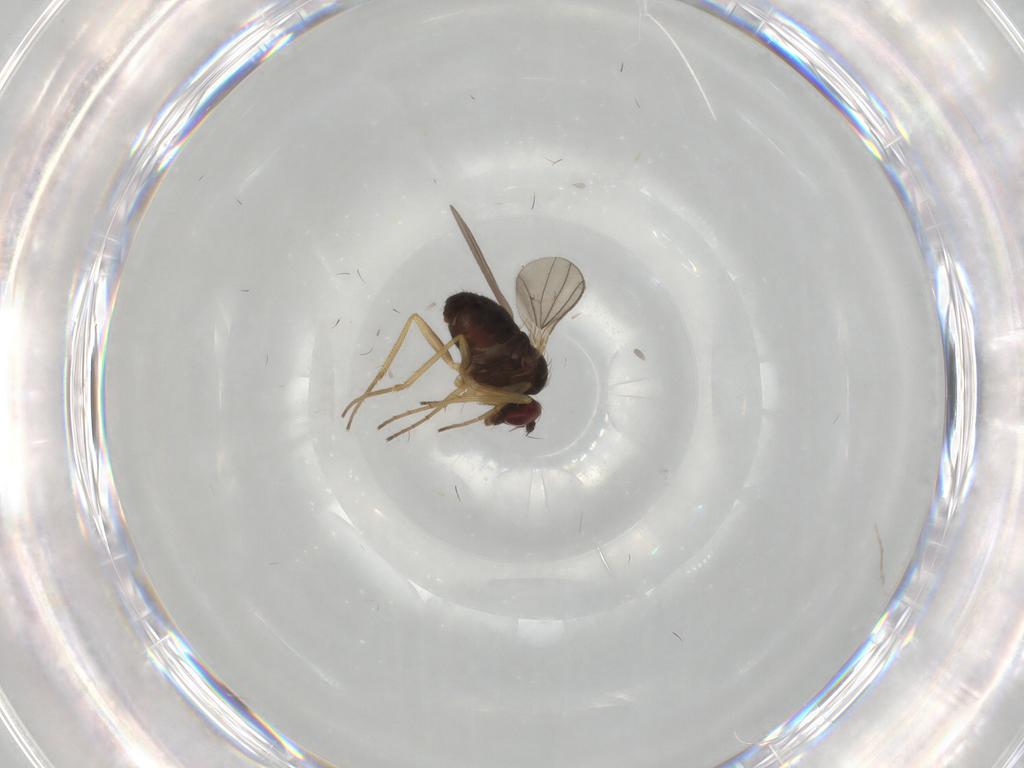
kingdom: Animalia
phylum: Arthropoda
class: Insecta
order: Diptera
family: Dolichopodidae
